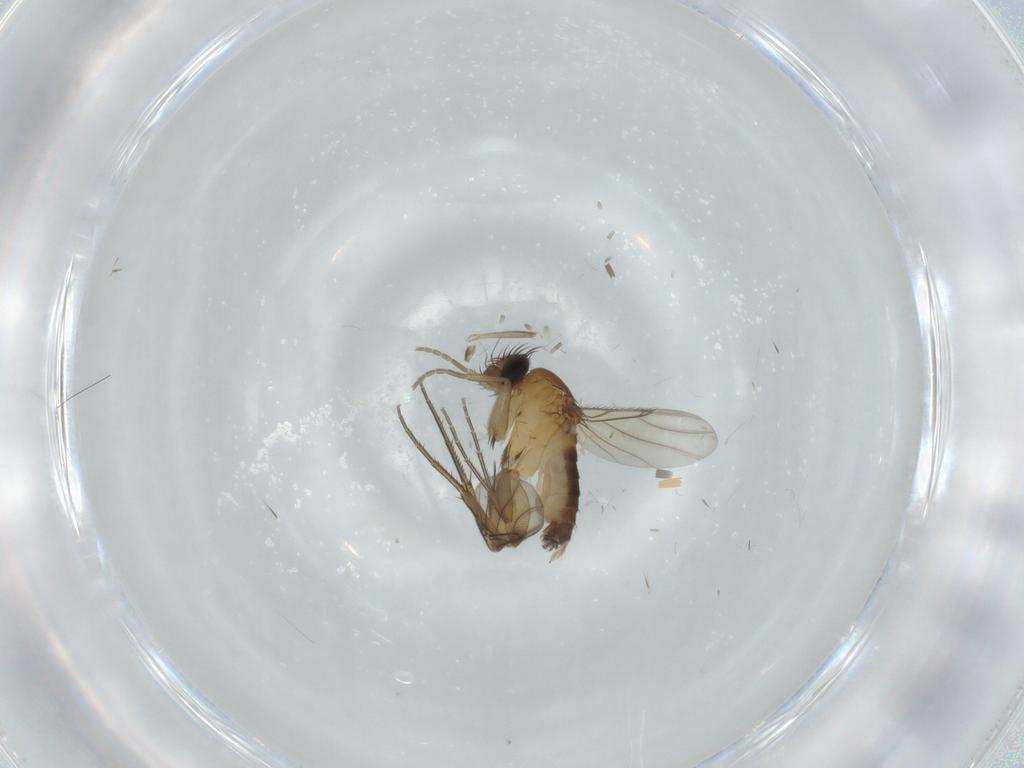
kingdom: Animalia
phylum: Arthropoda
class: Insecta
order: Diptera
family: Phoridae
